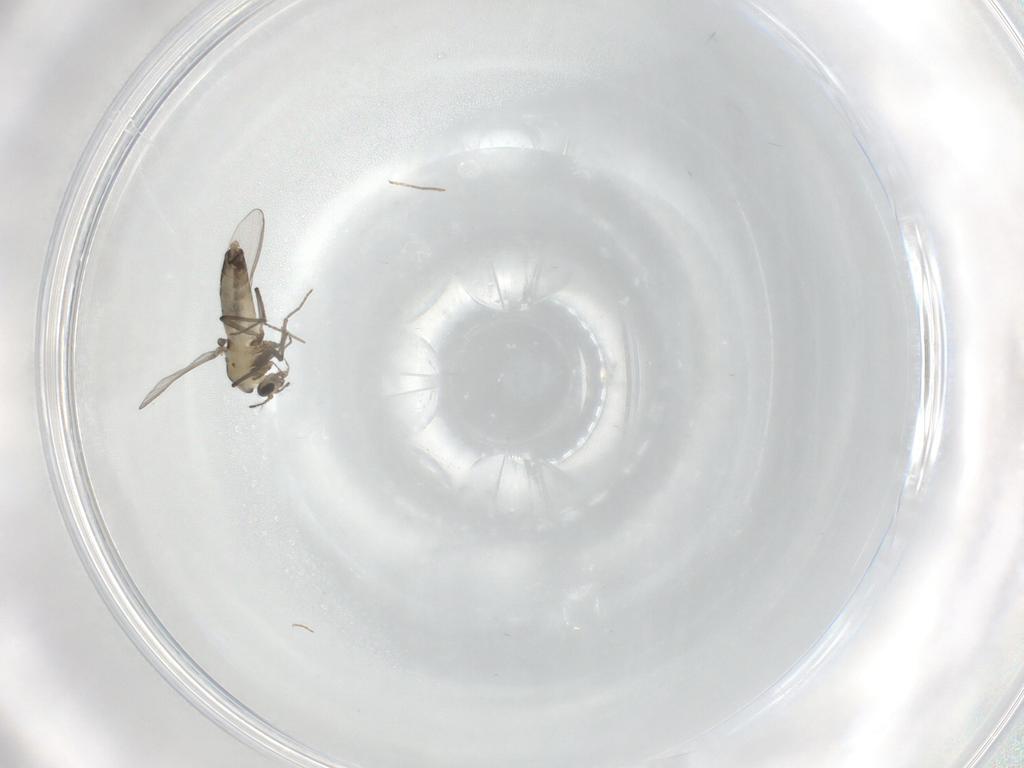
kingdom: Animalia
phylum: Arthropoda
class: Insecta
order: Diptera
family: Chironomidae
